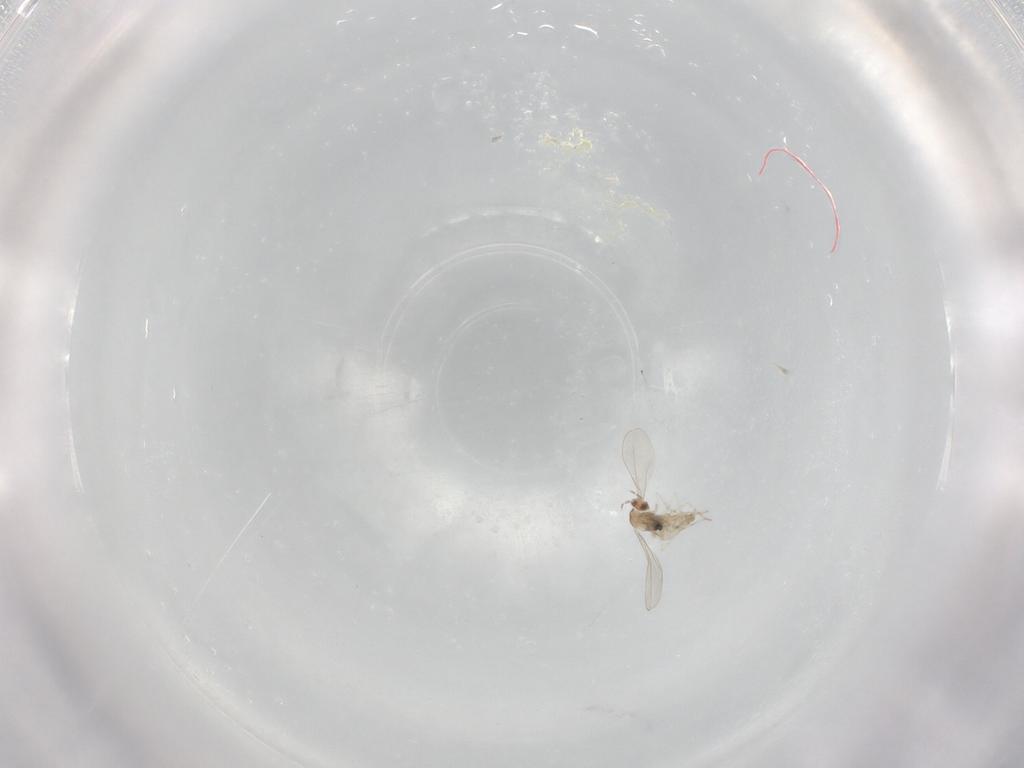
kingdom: Animalia
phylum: Arthropoda
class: Insecta
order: Diptera
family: Cecidomyiidae
